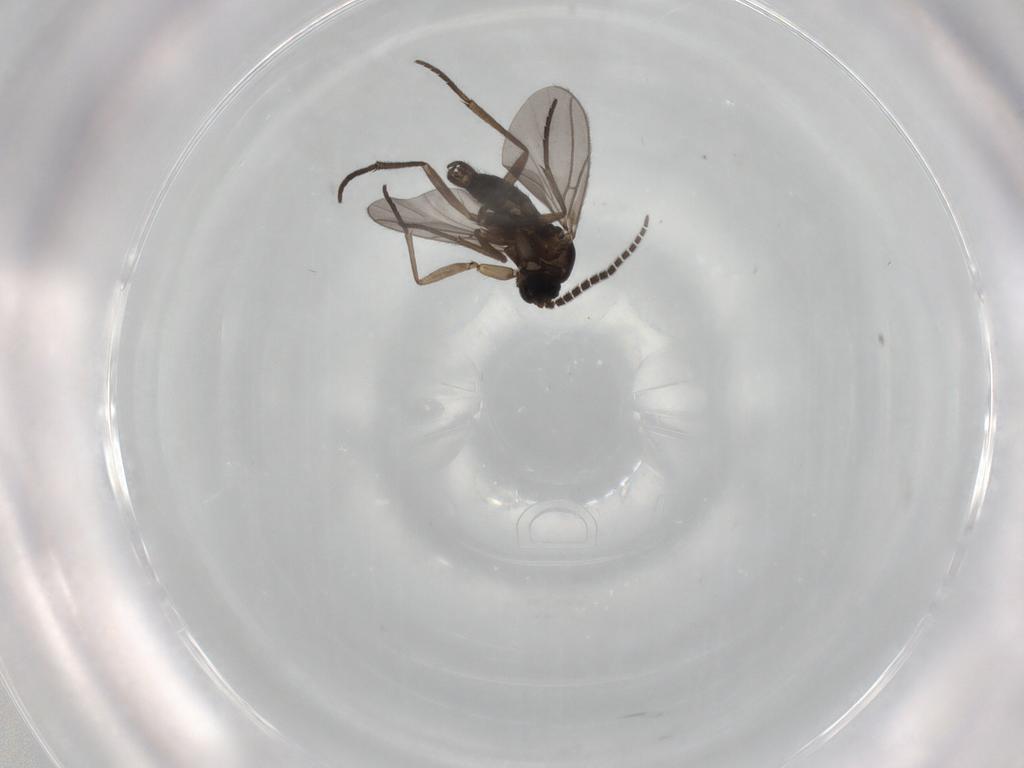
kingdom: Animalia
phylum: Arthropoda
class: Insecta
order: Diptera
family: Sciaridae
